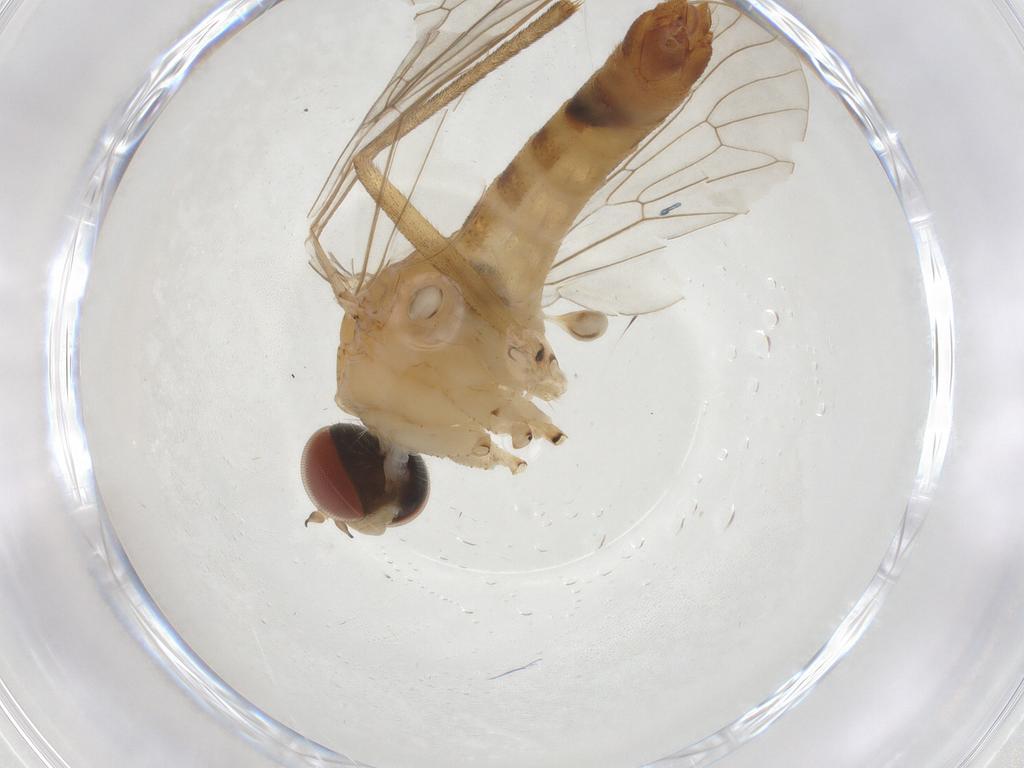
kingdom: Animalia
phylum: Arthropoda
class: Insecta
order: Diptera
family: Apsilocephalidae
